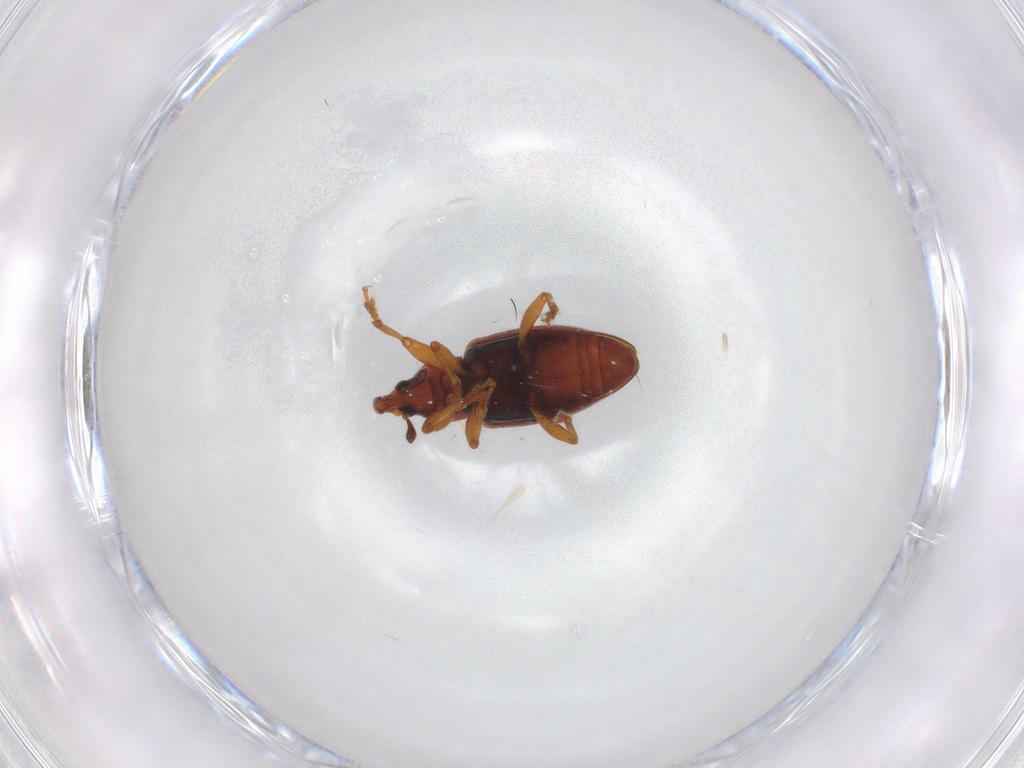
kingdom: Animalia
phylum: Arthropoda
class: Insecta
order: Coleoptera
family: Curculionidae
